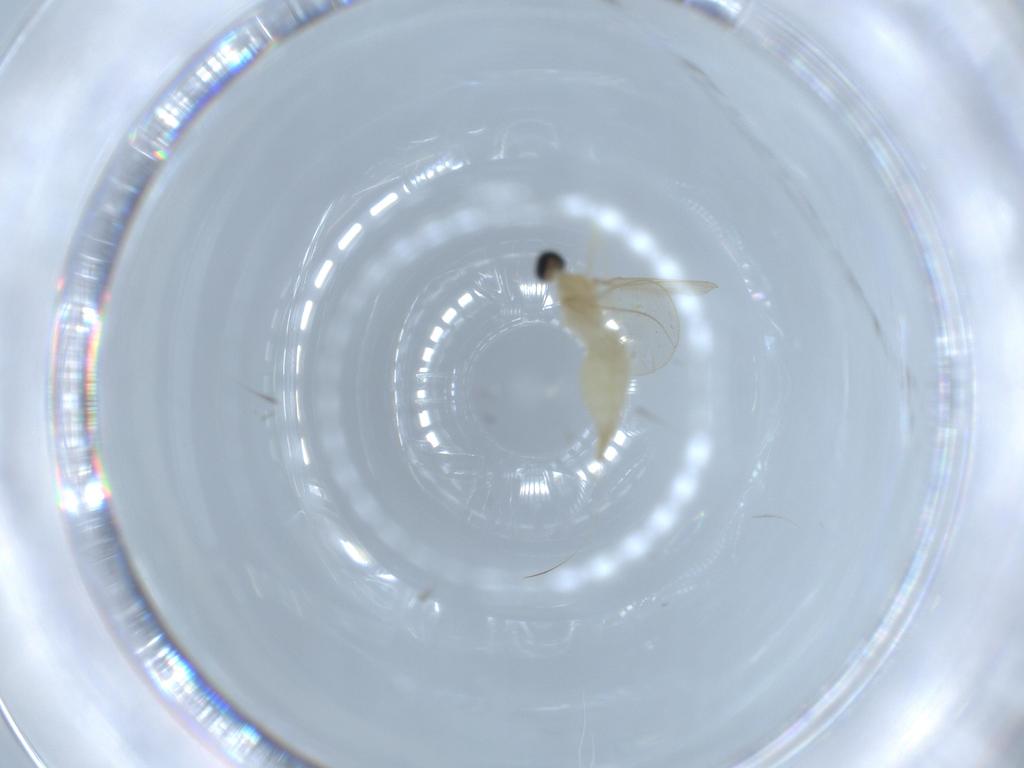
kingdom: Animalia
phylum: Arthropoda
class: Insecta
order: Diptera
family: Cecidomyiidae
